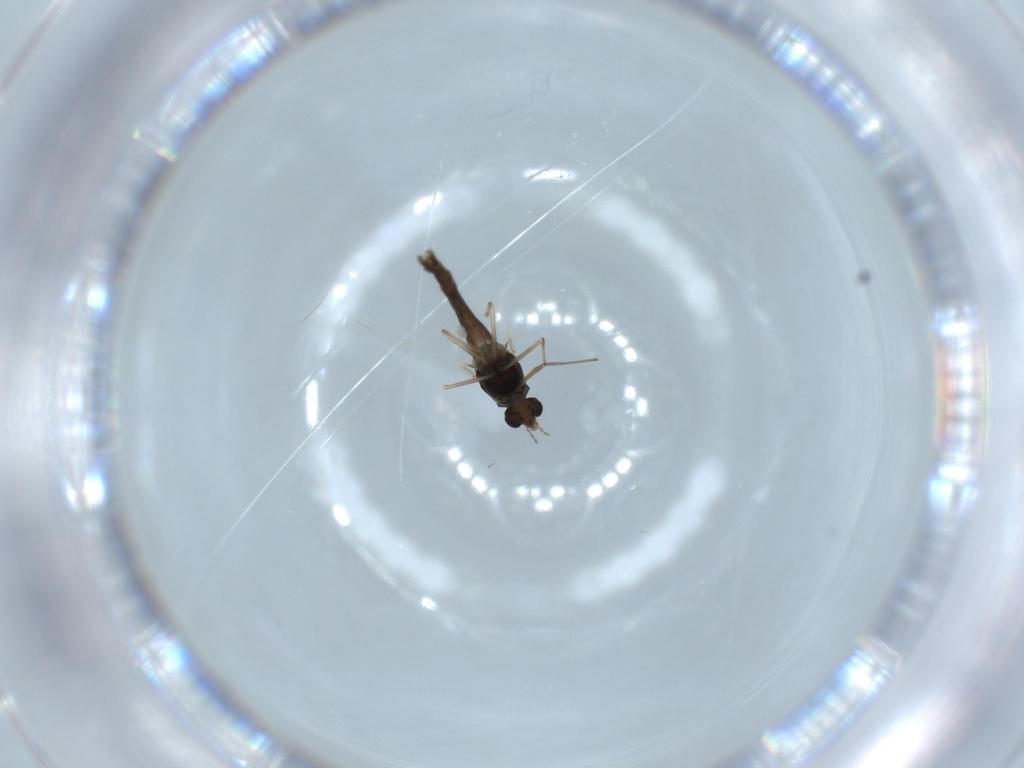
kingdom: Animalia
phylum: Arthropoda
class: Insecta
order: Diptera
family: Chironomidae
